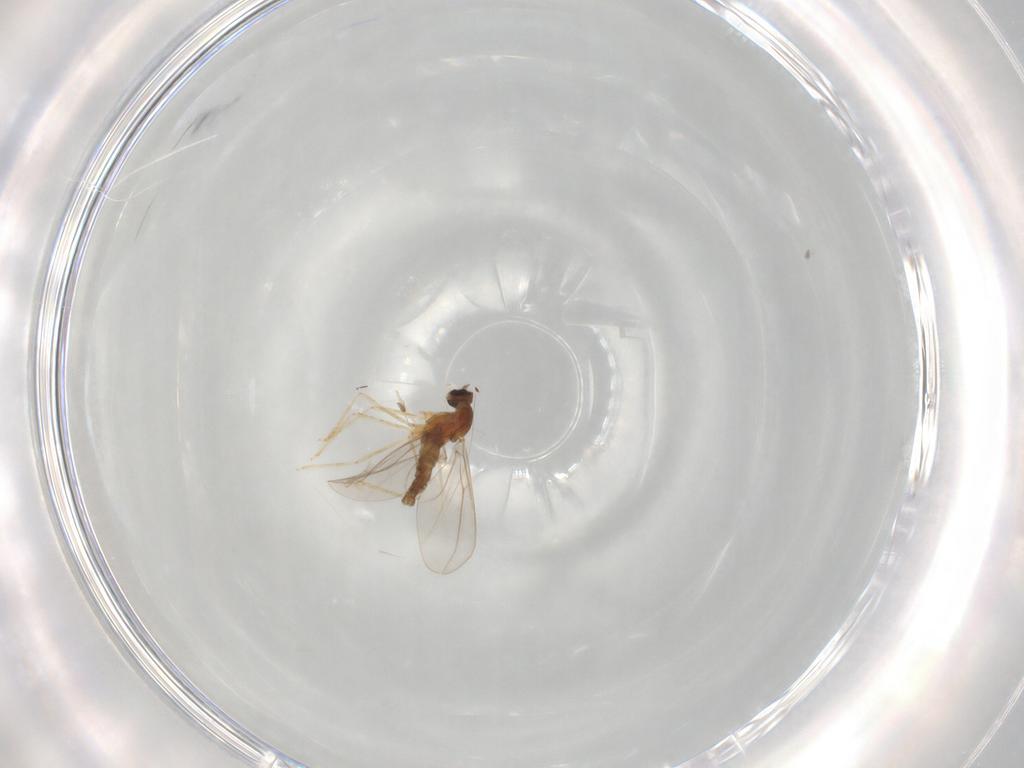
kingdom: Animalia
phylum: Arthropoda
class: Insecta
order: Diptera
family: Cecidomyiidae
